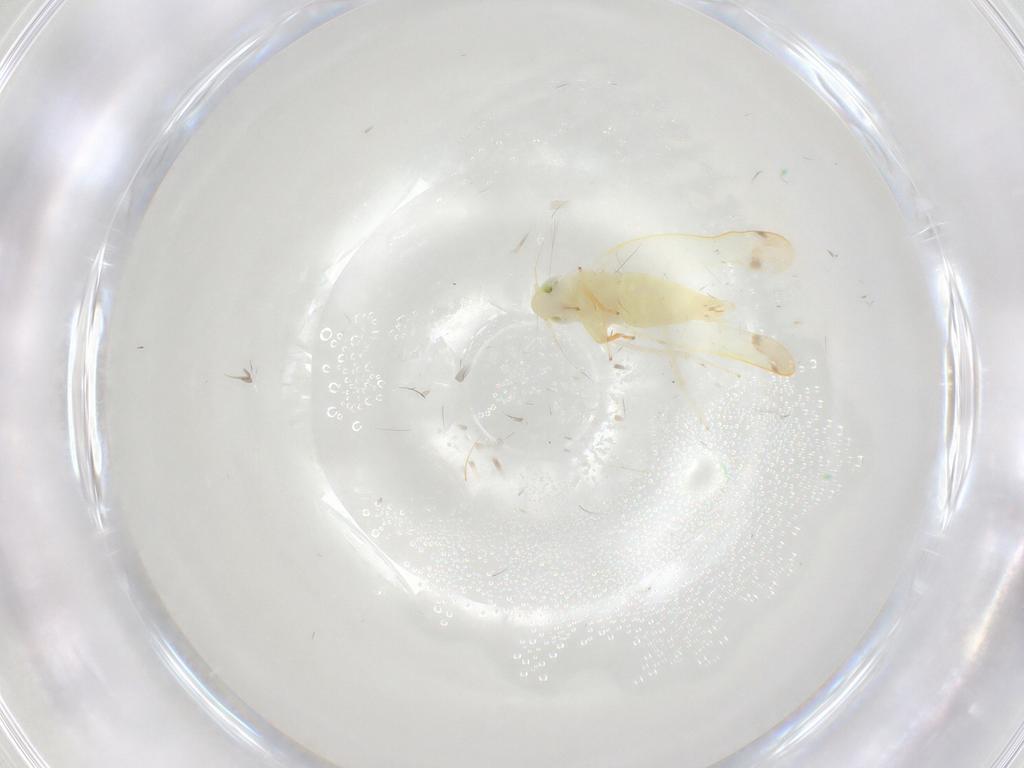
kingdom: Animalia
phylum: Arthropoda
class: Insecta
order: Hemiptera
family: Cicadellidae
